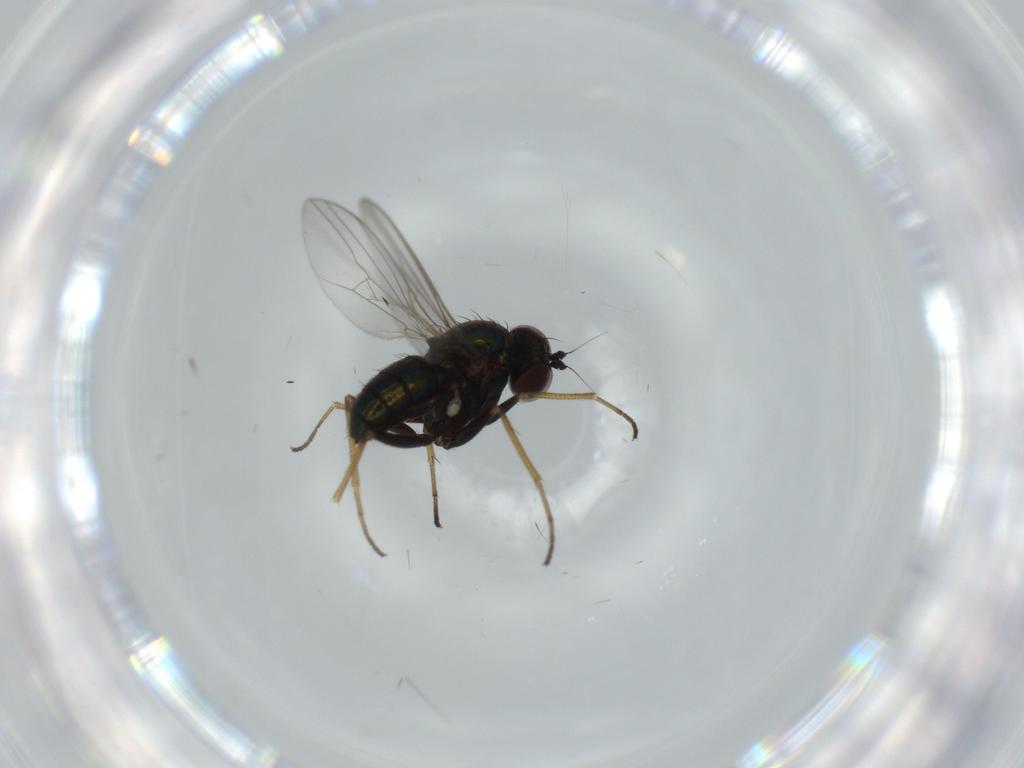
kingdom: Animalia
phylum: Arthropoda
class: Insecta
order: Diptera
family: Dolichopodidae
